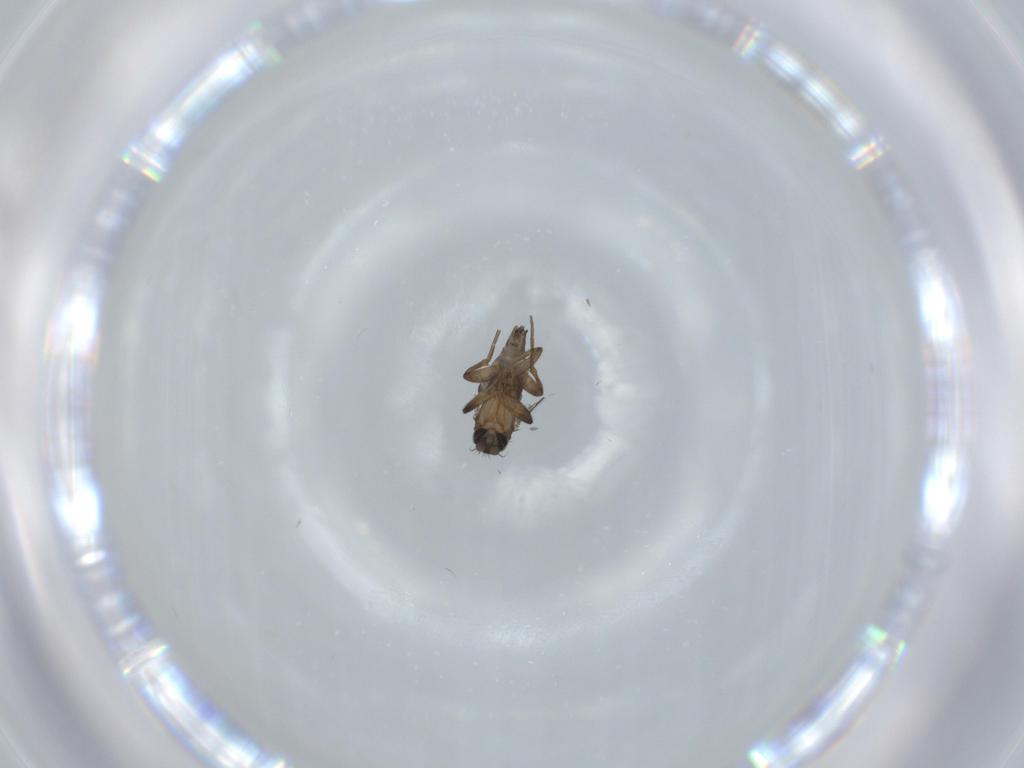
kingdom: Animalia
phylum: Arthropoda
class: Insecta
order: Diptera
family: Phoridae
